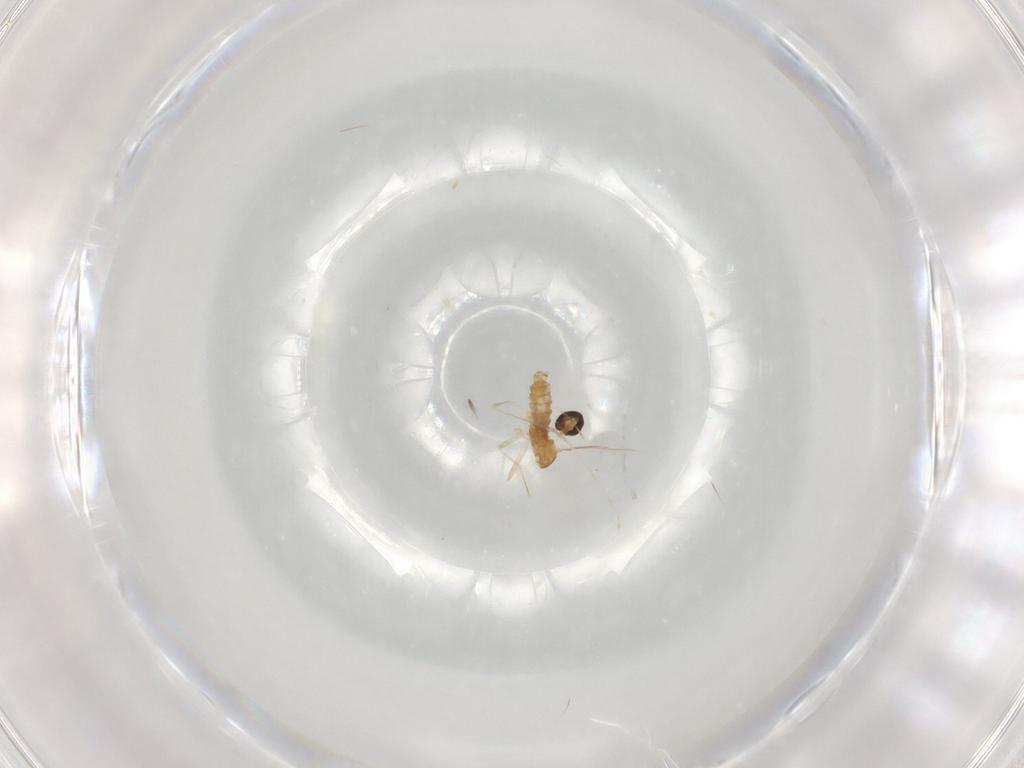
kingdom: Animalia
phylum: Arthropoda
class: Insecta
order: Diptera
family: Cecidomyiidae
